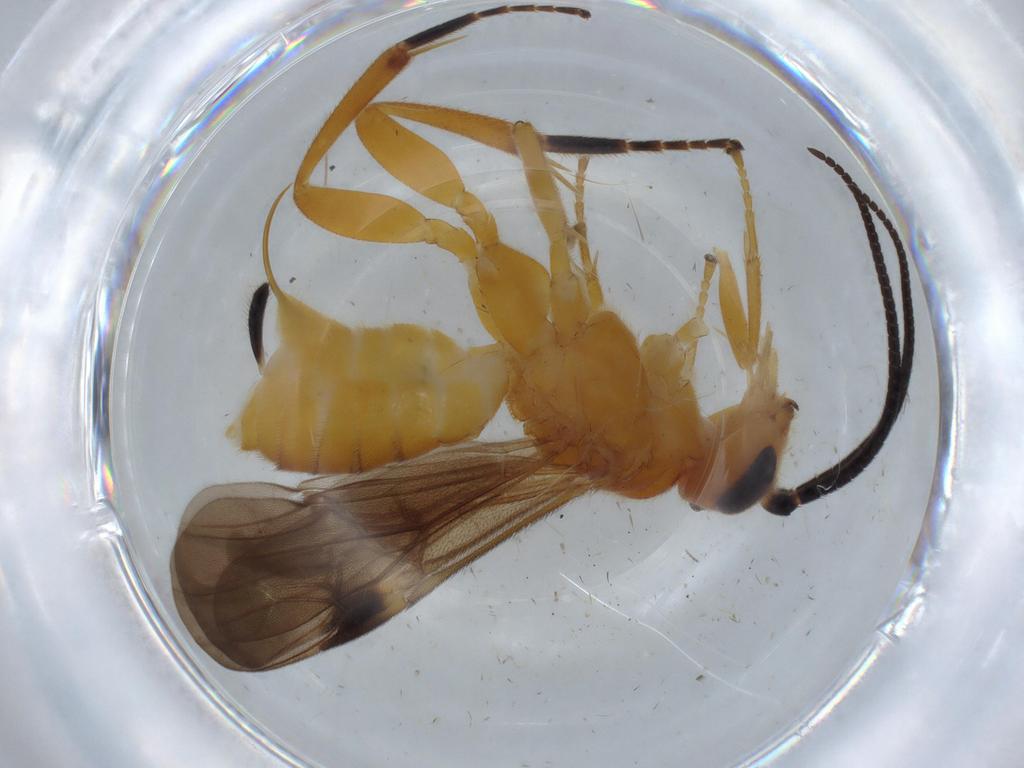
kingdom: Animalia
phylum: Arthropoda
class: Insecta
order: Hymenoptera
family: Braconidae
